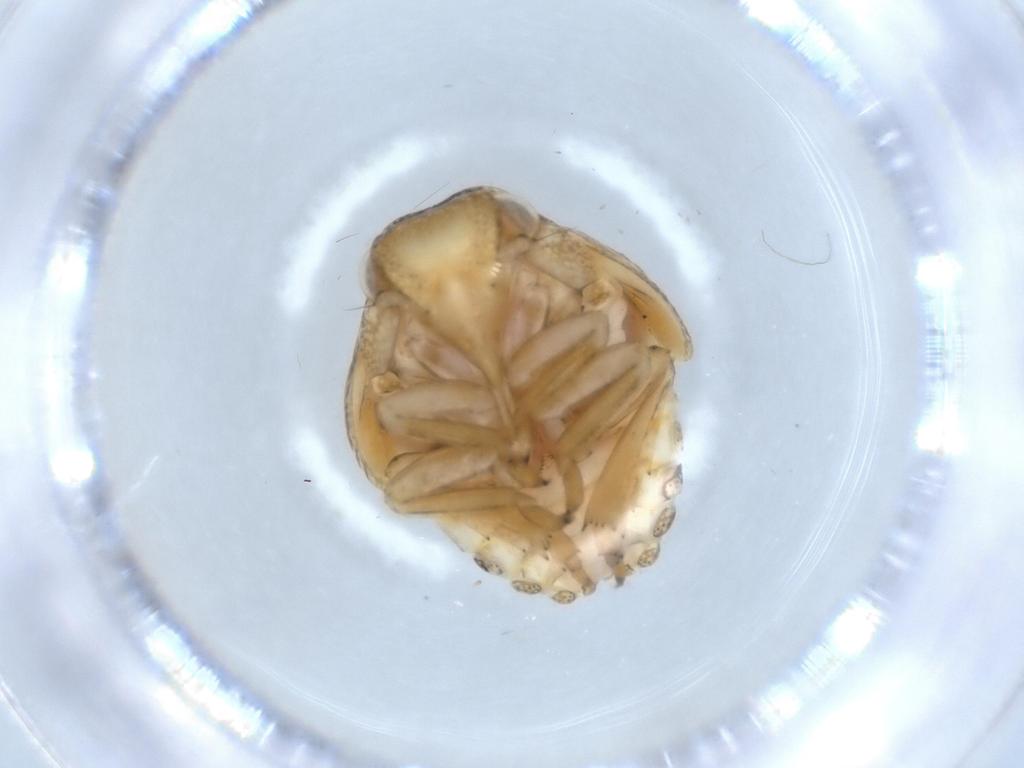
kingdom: Animalia
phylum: Arthropoda
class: Insecta
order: Hemiptera
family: Acanaloniidae
